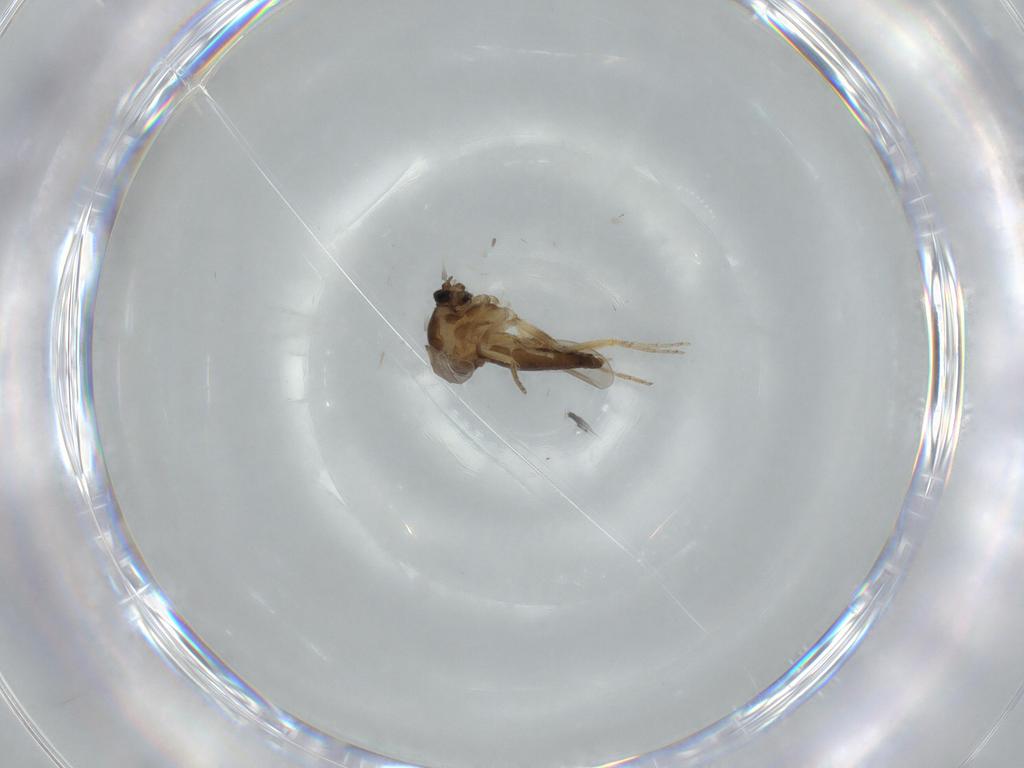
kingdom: Animalia
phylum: Arthropoda
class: Insecta
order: Diptera
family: Ceratopogonidae
